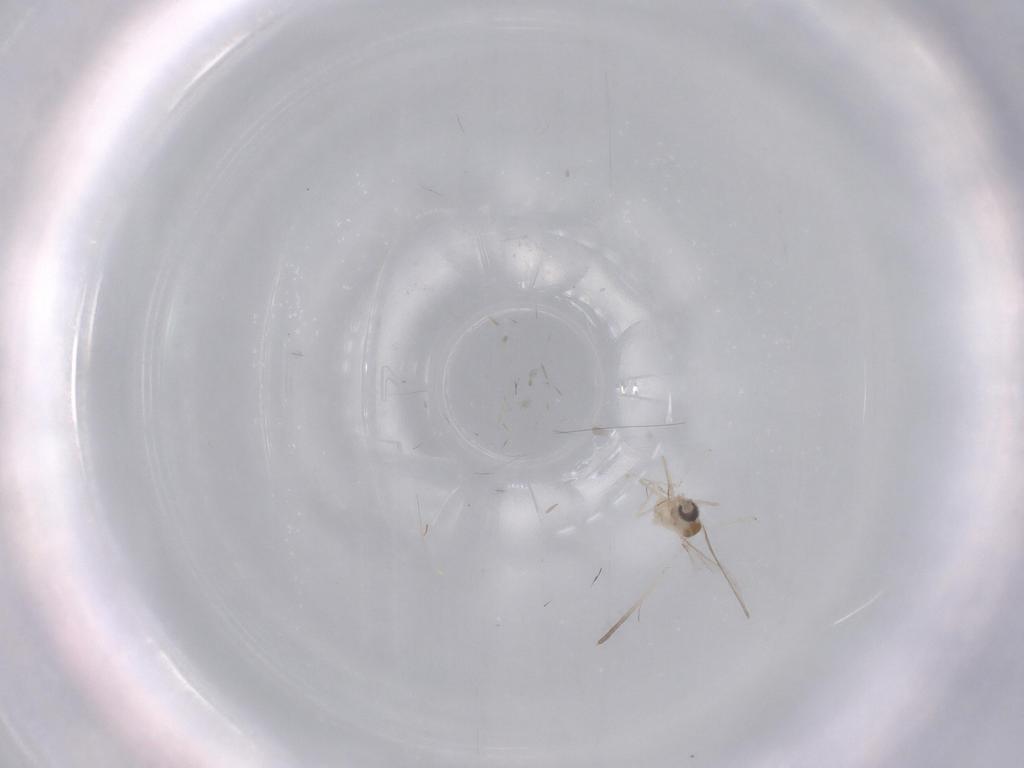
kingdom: Animalia
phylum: Arthropoda
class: Insecta
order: Diptera
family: Cecidomyiidae
